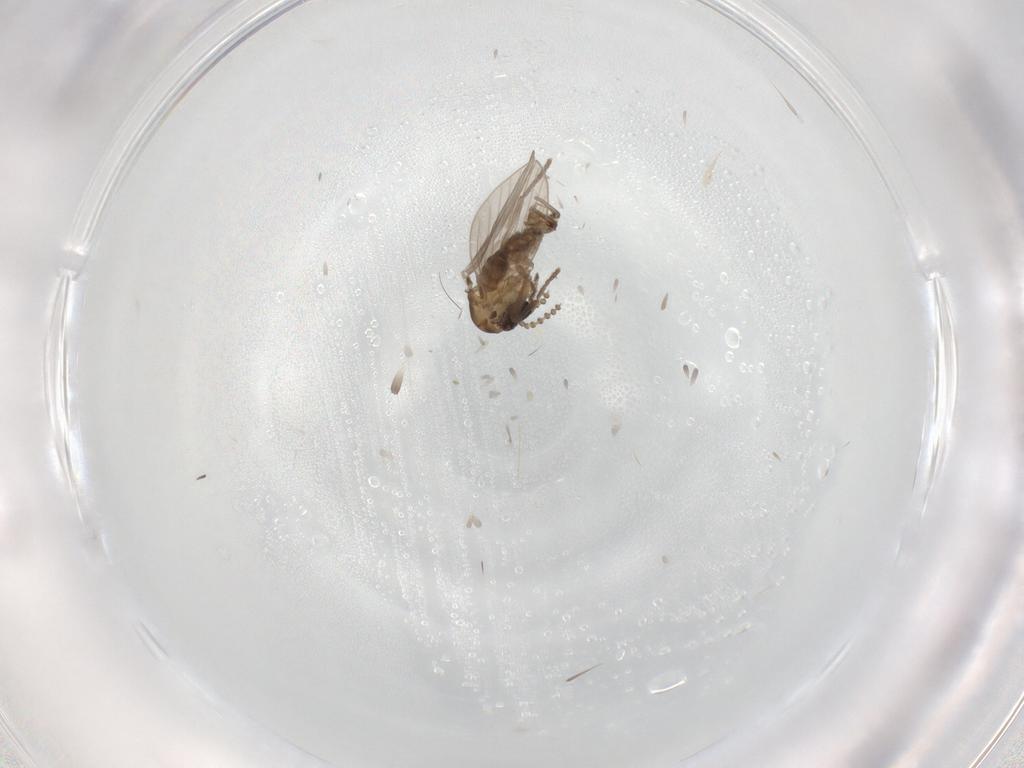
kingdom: Animalia
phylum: Arthropoda
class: Insecta
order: Diptera
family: Psychodidae
